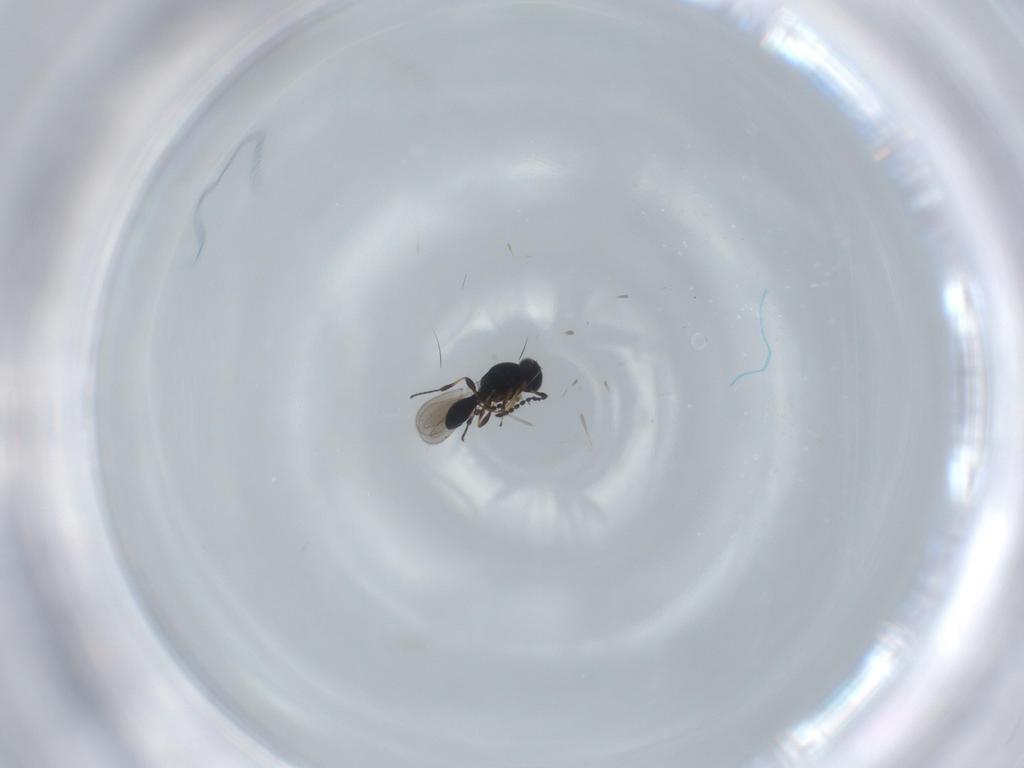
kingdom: Animalia
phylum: Arthropoda
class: Insecta
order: Hymenoptera
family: Platygastridae
